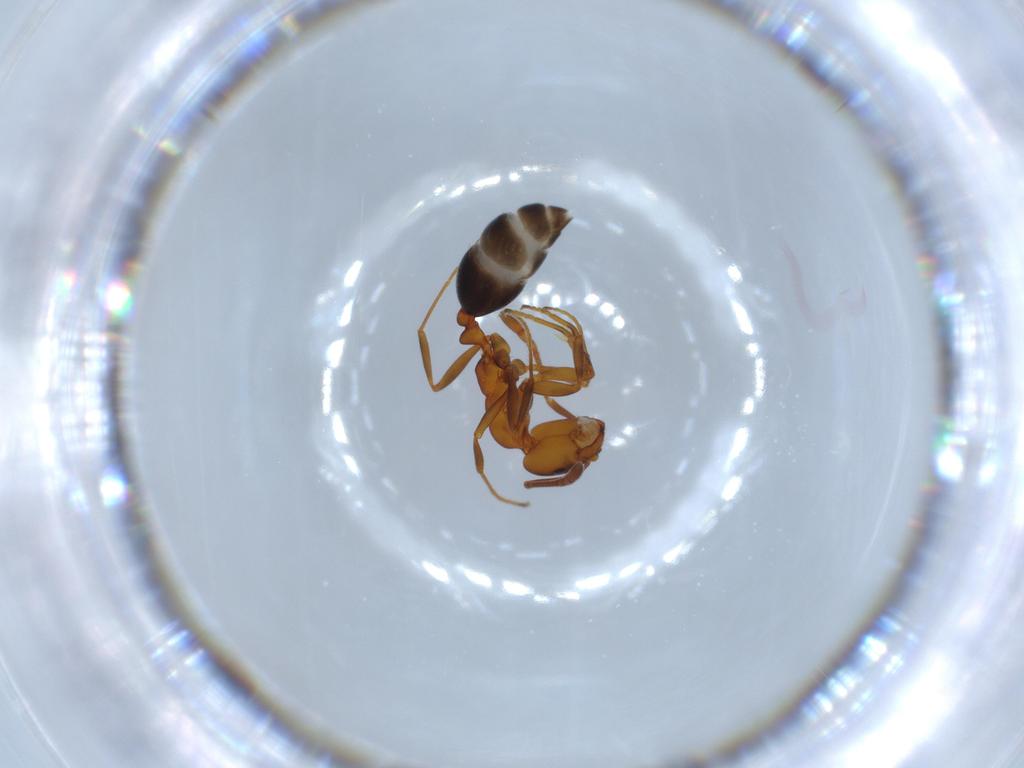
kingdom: Animalia
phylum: Arthropoda
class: Insecta
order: Hymenoptera
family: Formicidae
